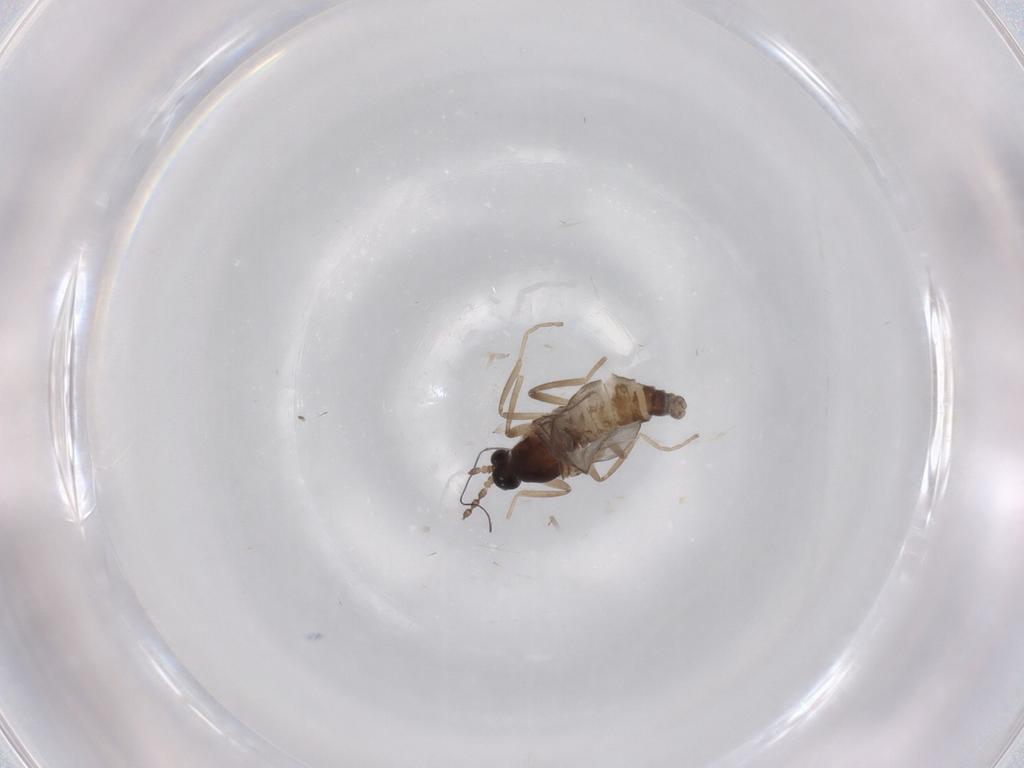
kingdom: Animalia
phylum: Arthropoda
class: Insecta
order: Diptera
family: Cecidomyiidae
